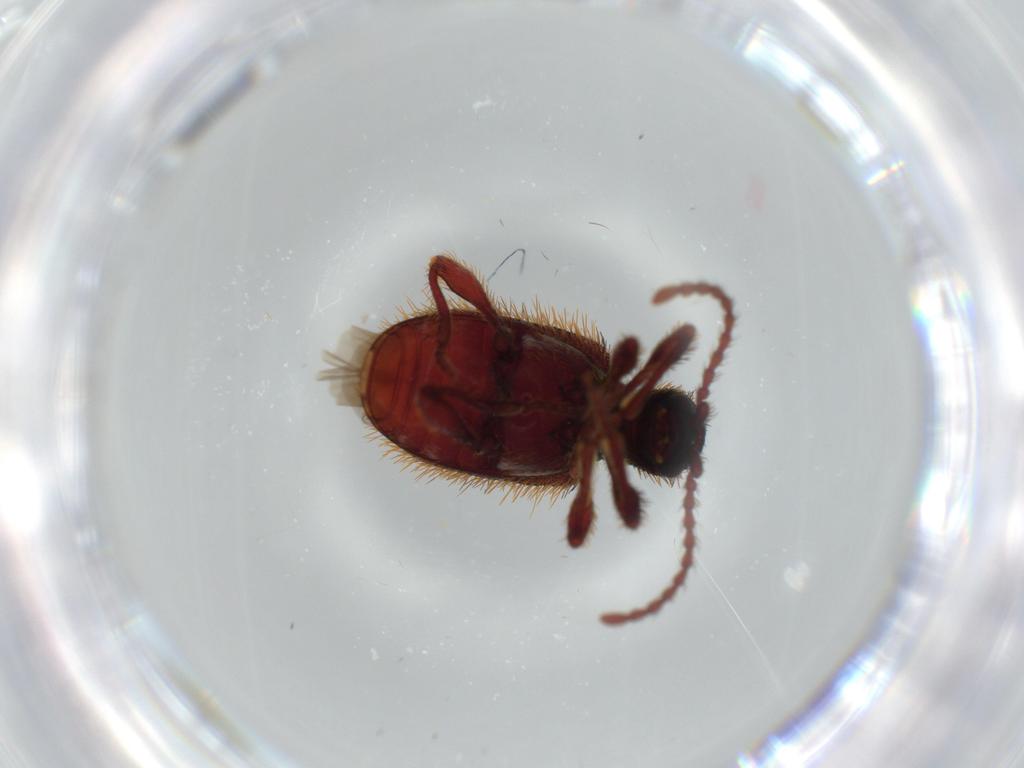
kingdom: Animalia
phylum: Arthropoda
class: Insecta
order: Coleoptera
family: Ptinidae
